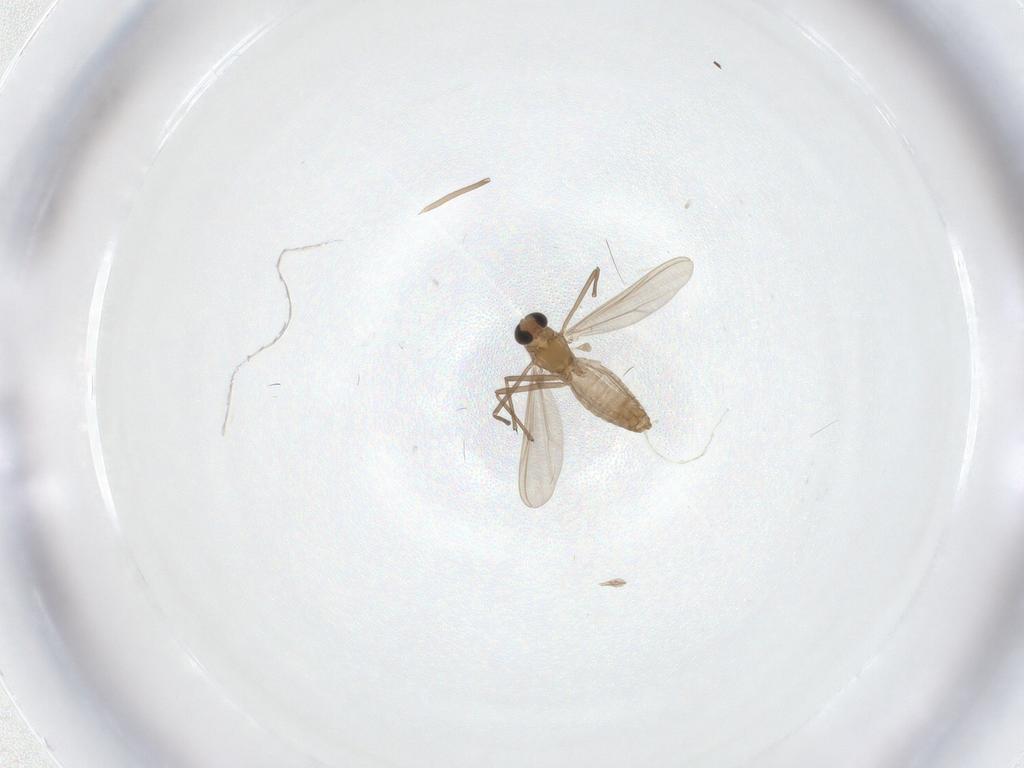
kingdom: Animalia
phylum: Arthropoda
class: Insecta
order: Diptera
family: Chironomidae
